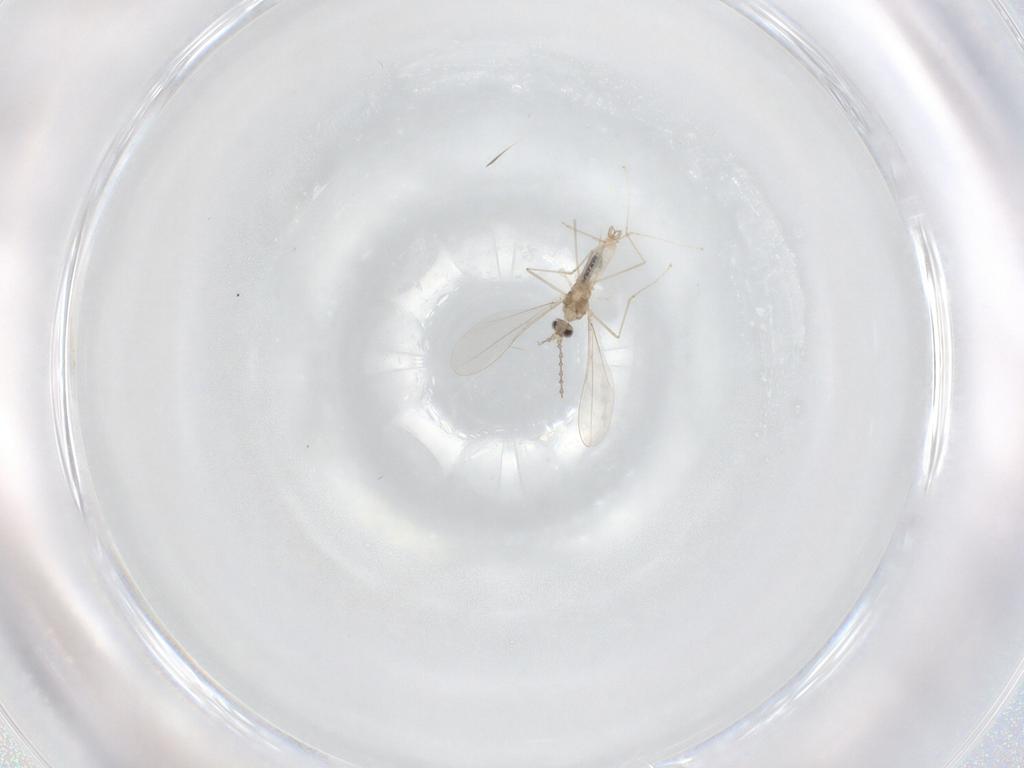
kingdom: Animalia
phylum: Arthropoda
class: Insecta
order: Diptera
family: Cecidomyiidae
